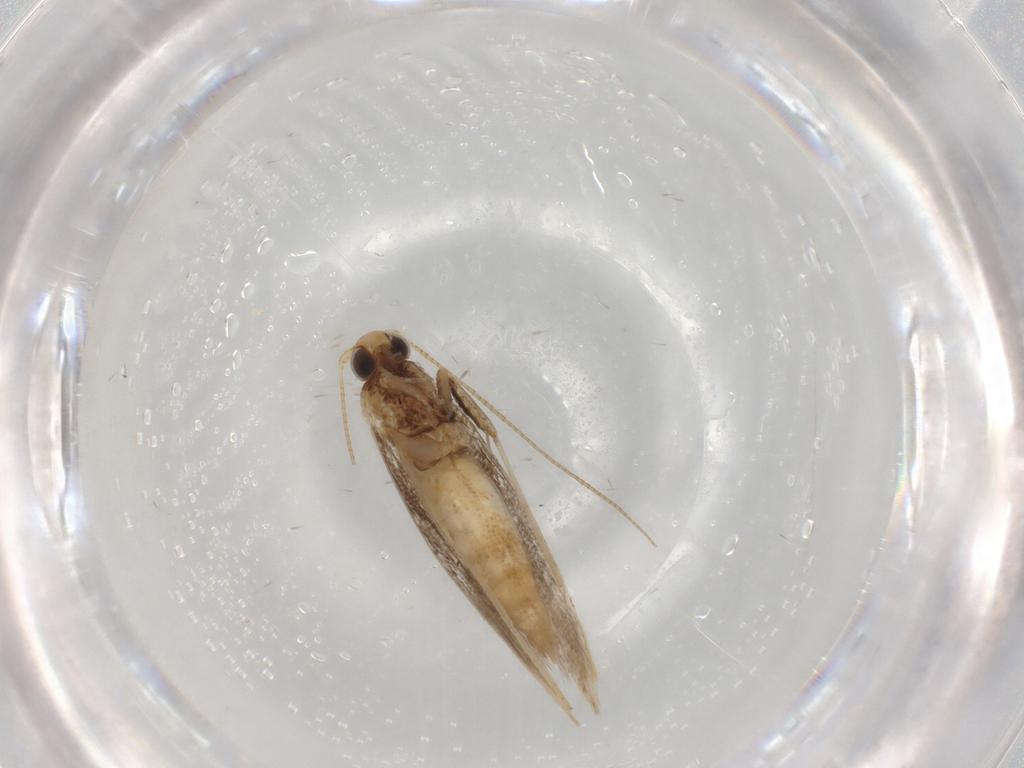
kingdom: Animalia
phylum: Arthropoda
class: Insecta
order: Lepidoptera
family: Gracillariidae
